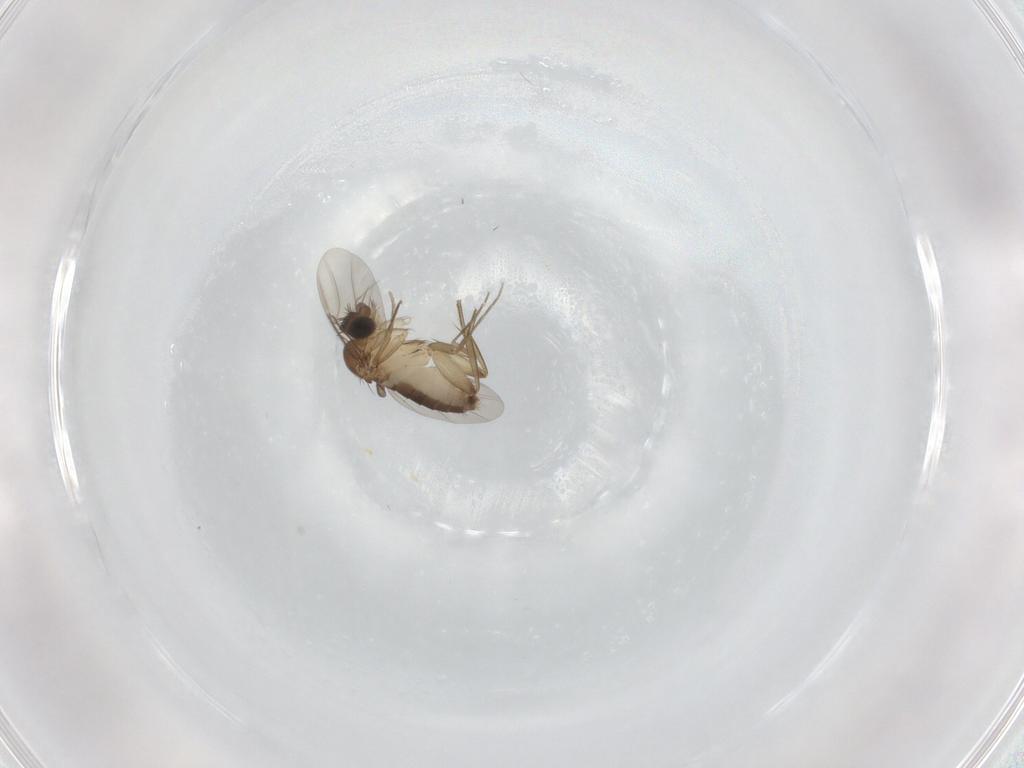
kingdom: Animalia
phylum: Arthropoda
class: Insecta
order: Diptera
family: Phoridae
